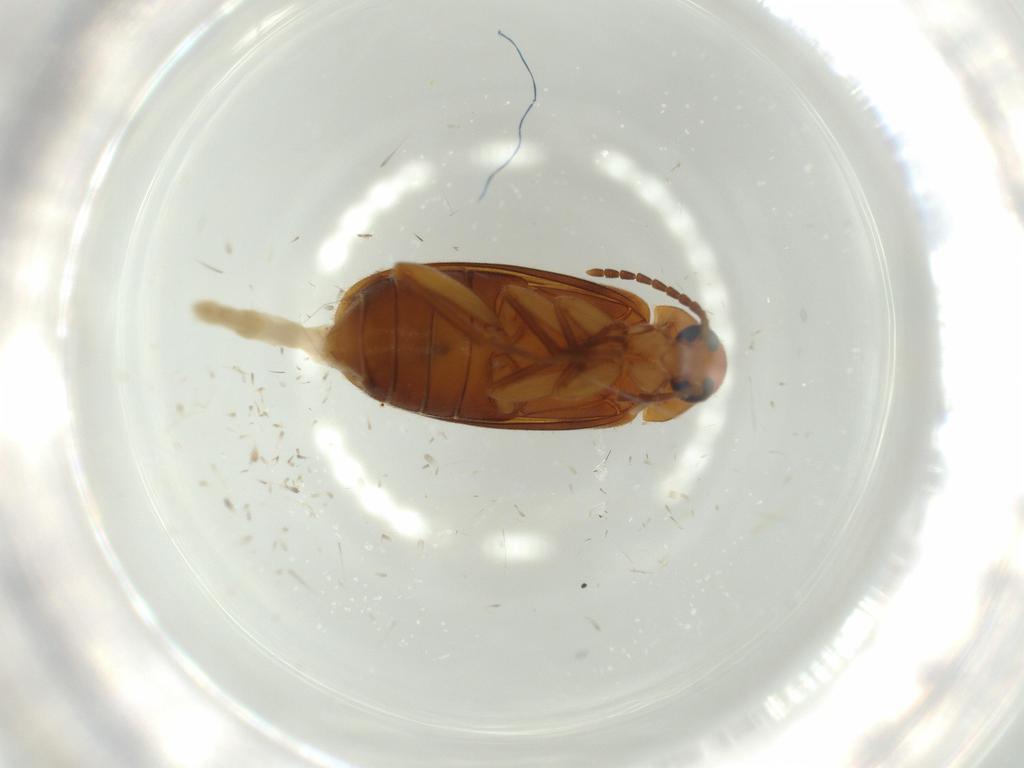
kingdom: Animalia
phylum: Arthropoda
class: Insecta
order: Coleoptera
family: Scraptiidae
